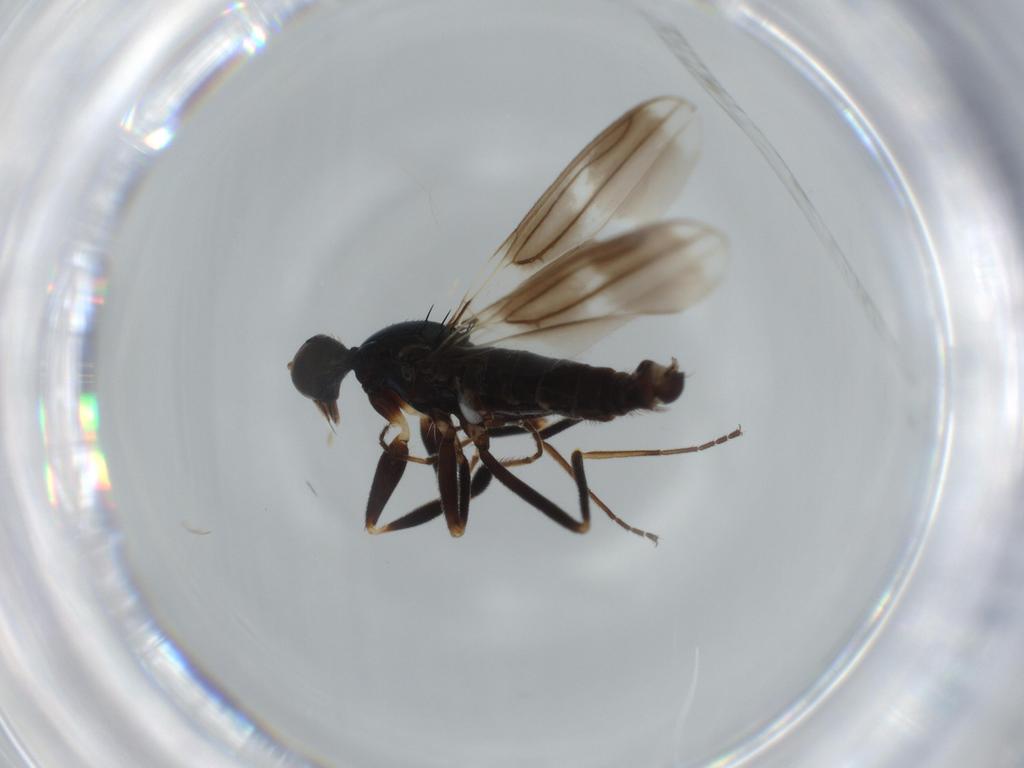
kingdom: Animalia
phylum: Arthropoda
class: Insecta
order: Diptera
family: Hybotidae
